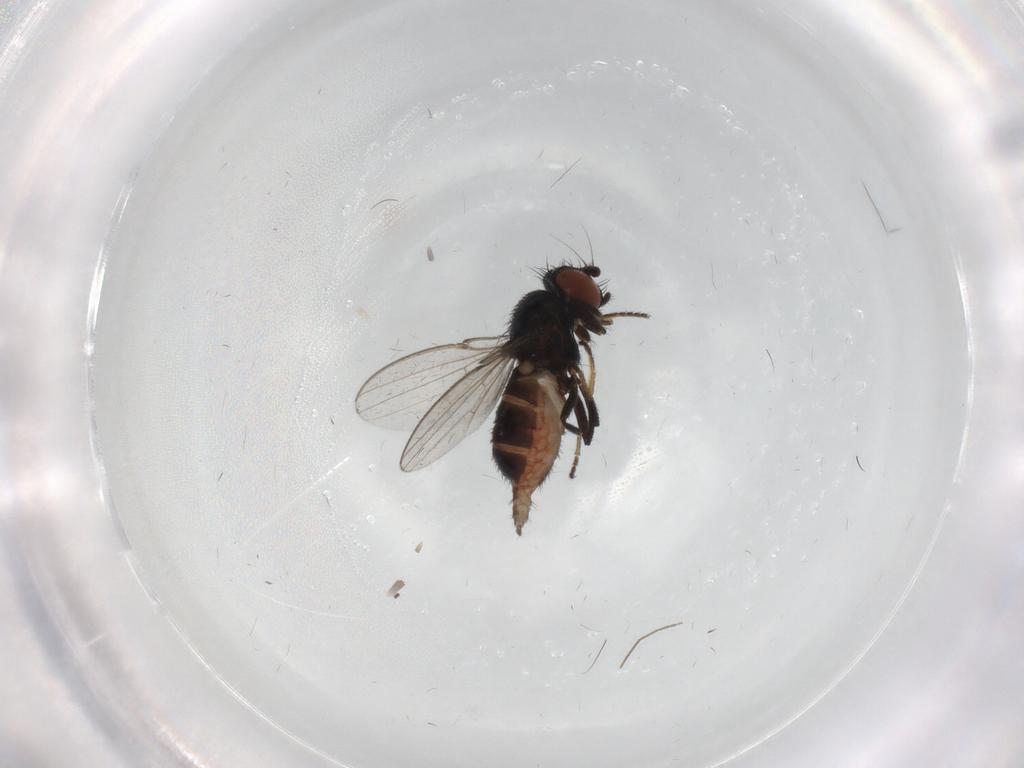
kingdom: Animalia
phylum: Arthropoda
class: Insecta
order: Diptera
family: Milichiidae
